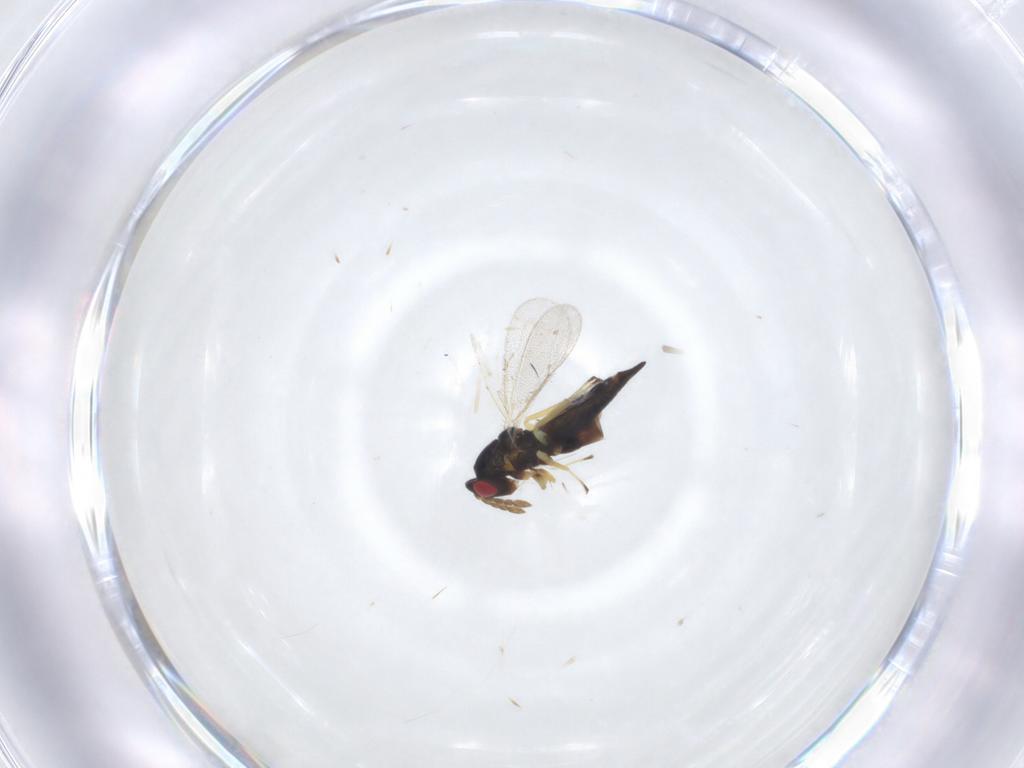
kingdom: Animalia
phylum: Arthropoda
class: Insecta
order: Hymenoptera
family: Eulophidae
